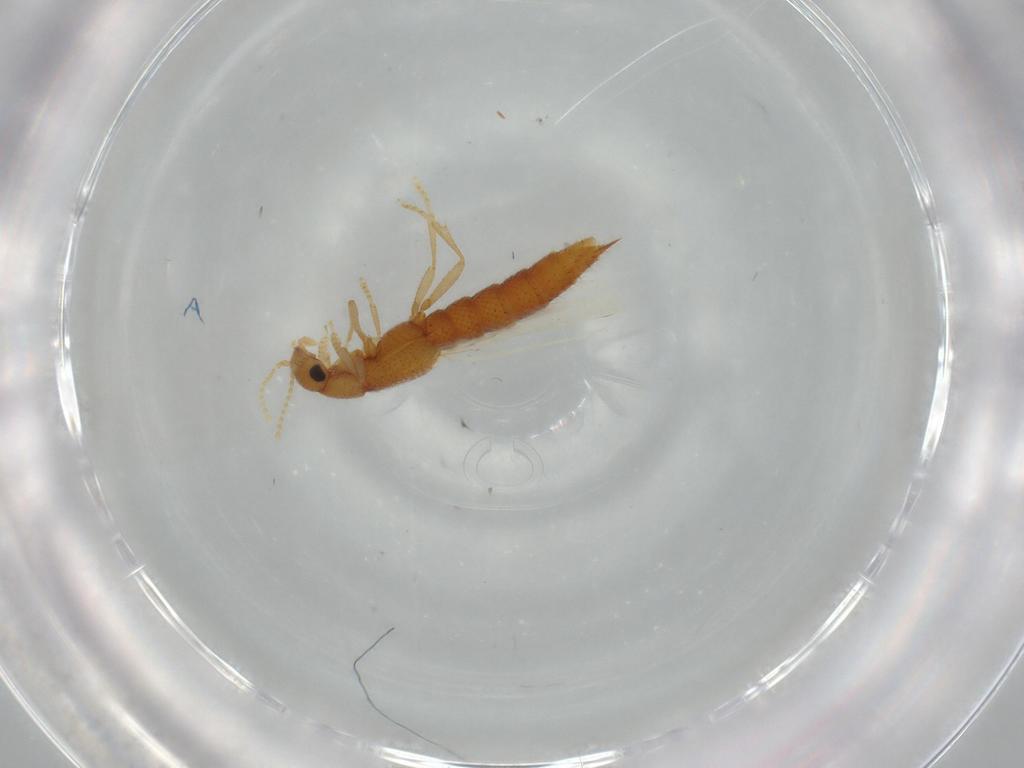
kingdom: Animalia
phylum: Arthropoda
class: Insecta
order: Coleoptera
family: Staphylinidae
